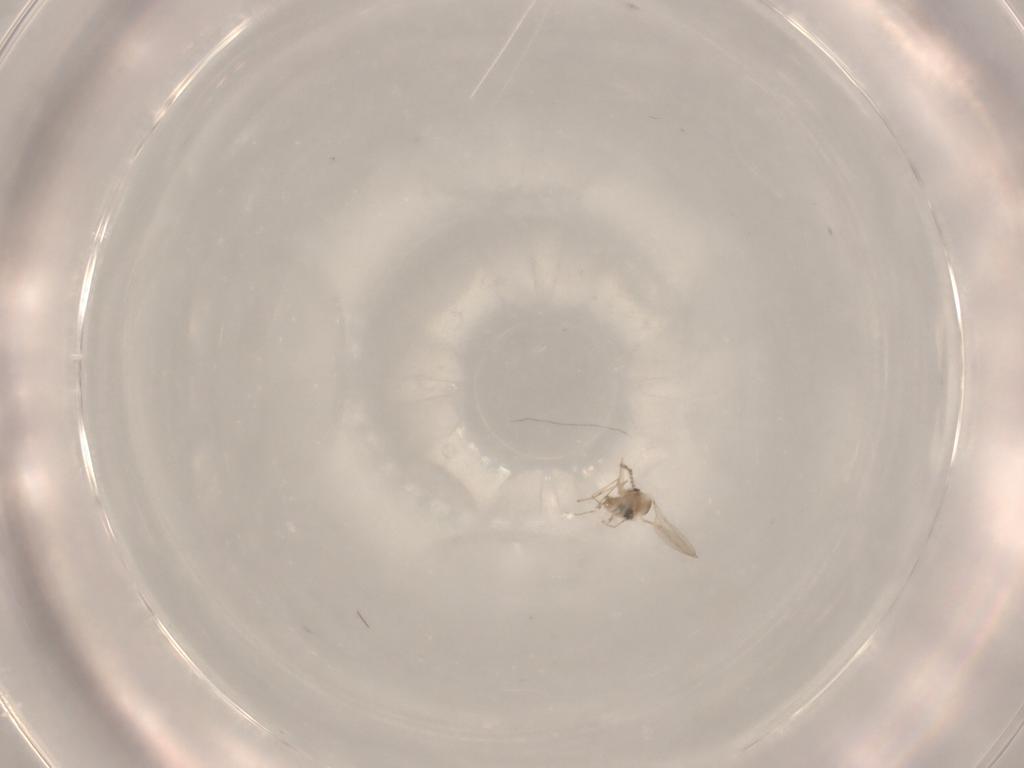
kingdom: Animalia
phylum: Arthropoda
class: Insecta
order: Diptera
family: Cecidomyiidae
